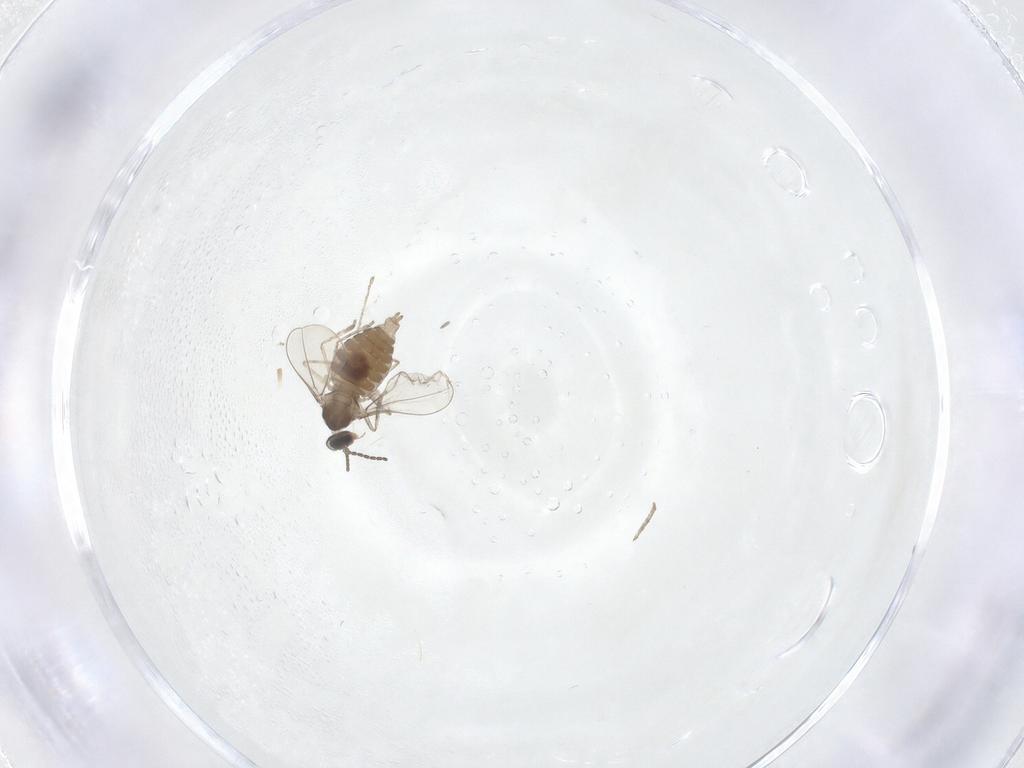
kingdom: Animalia
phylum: Arthropoda
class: Insecta
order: Diptera
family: Cecidomyiidae
